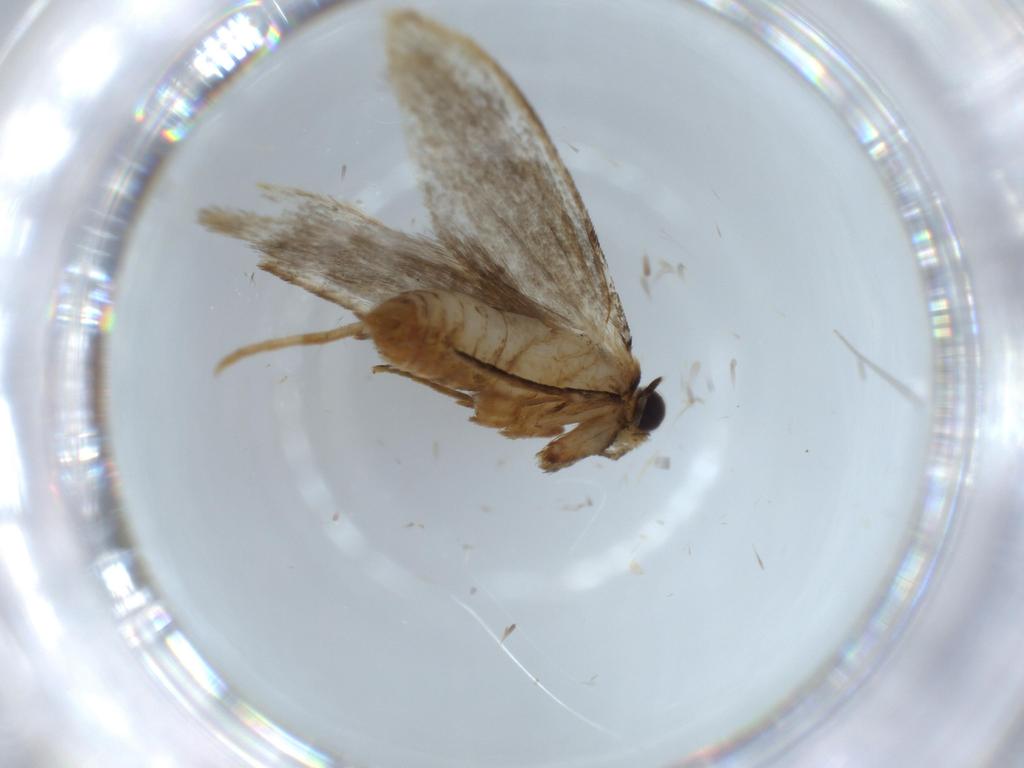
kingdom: Animalia
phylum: Arthropoda
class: Insecta
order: Lepidoptera
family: Tineidae
